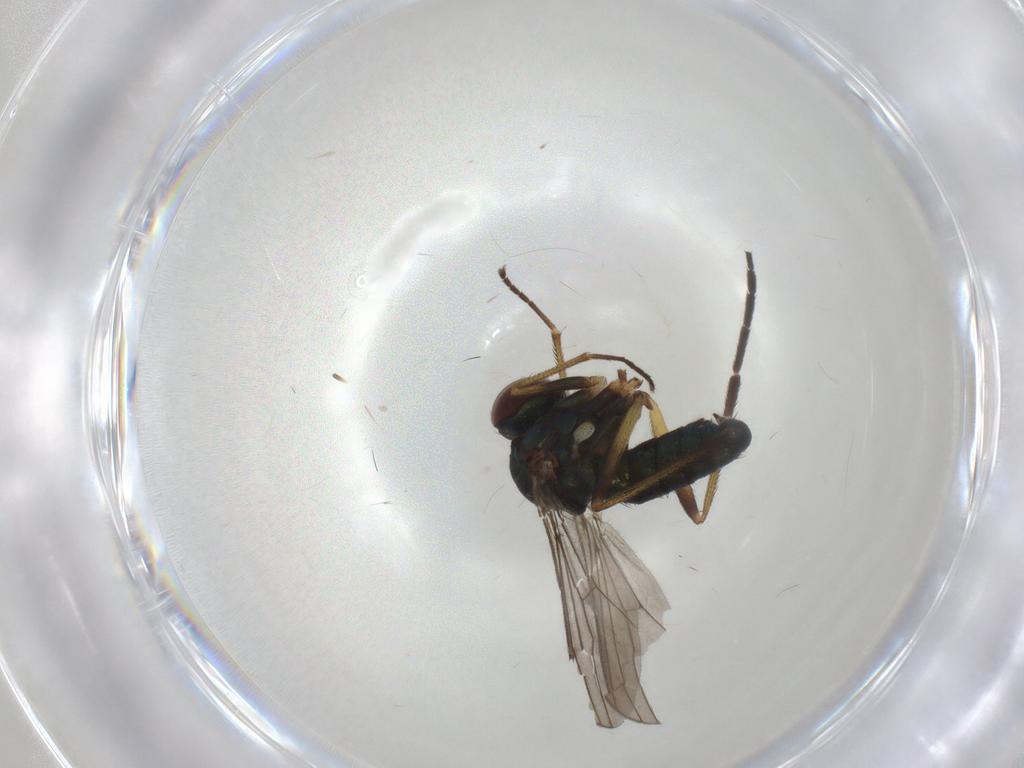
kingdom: Animalia
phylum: Arthropoda
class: Insecta
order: Diptera
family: Dolichopodidae
